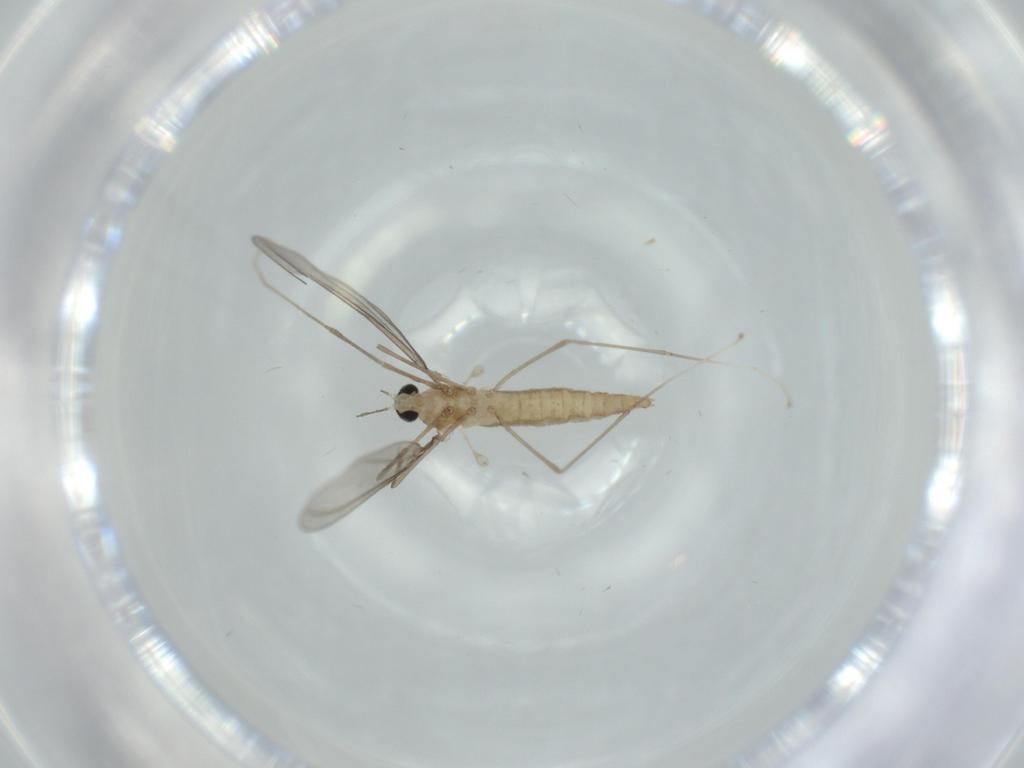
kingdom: Animalia
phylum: Arthropoda
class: Insecta
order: Diptera
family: Cecidomyiidae
